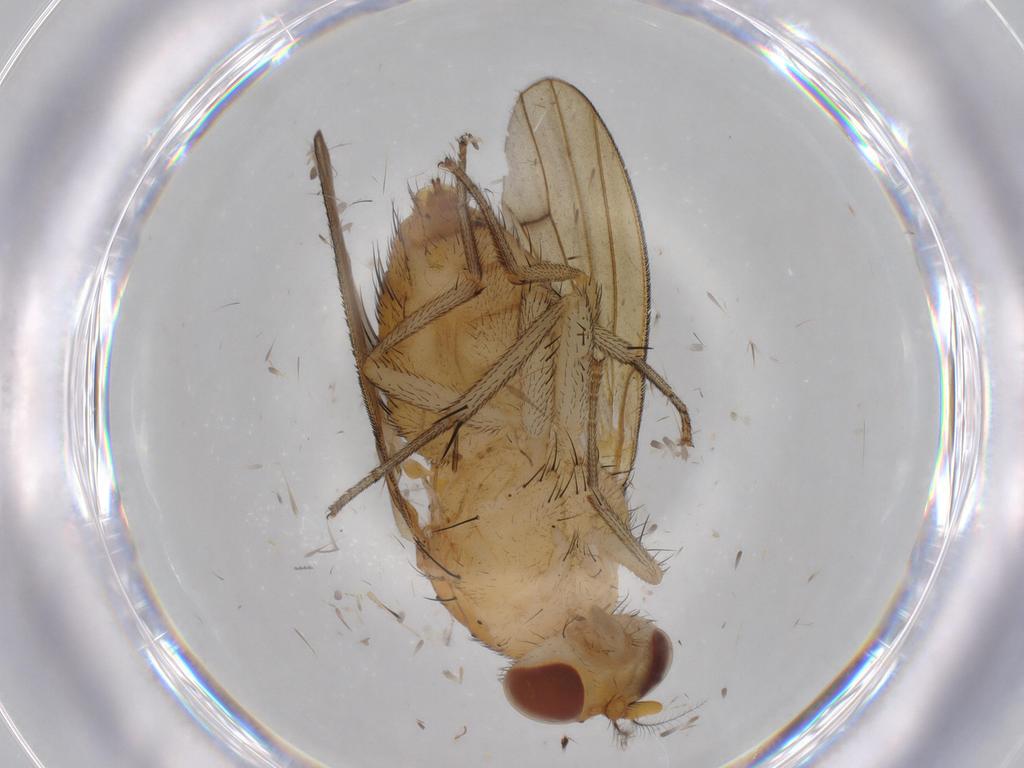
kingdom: Animalia
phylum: Arthropoda
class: Insecta
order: Diptera
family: Lauxaniidae
